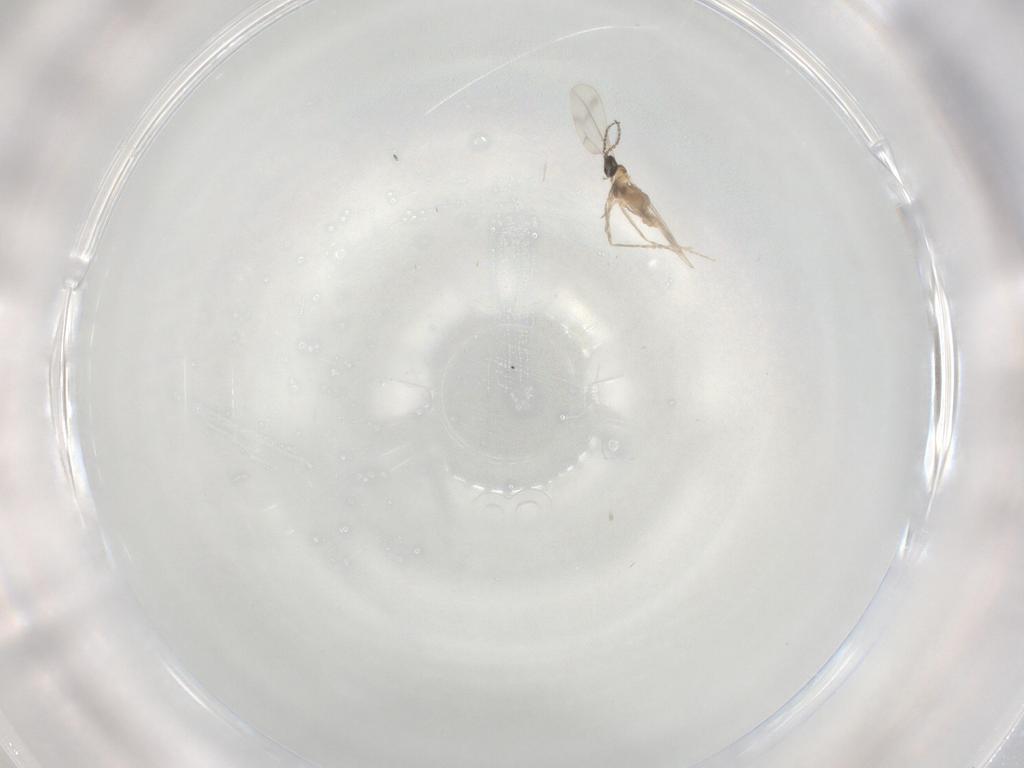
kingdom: Animalia
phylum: Arthropoda
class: Insecta
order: Diptera
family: Cecidomyiidae
